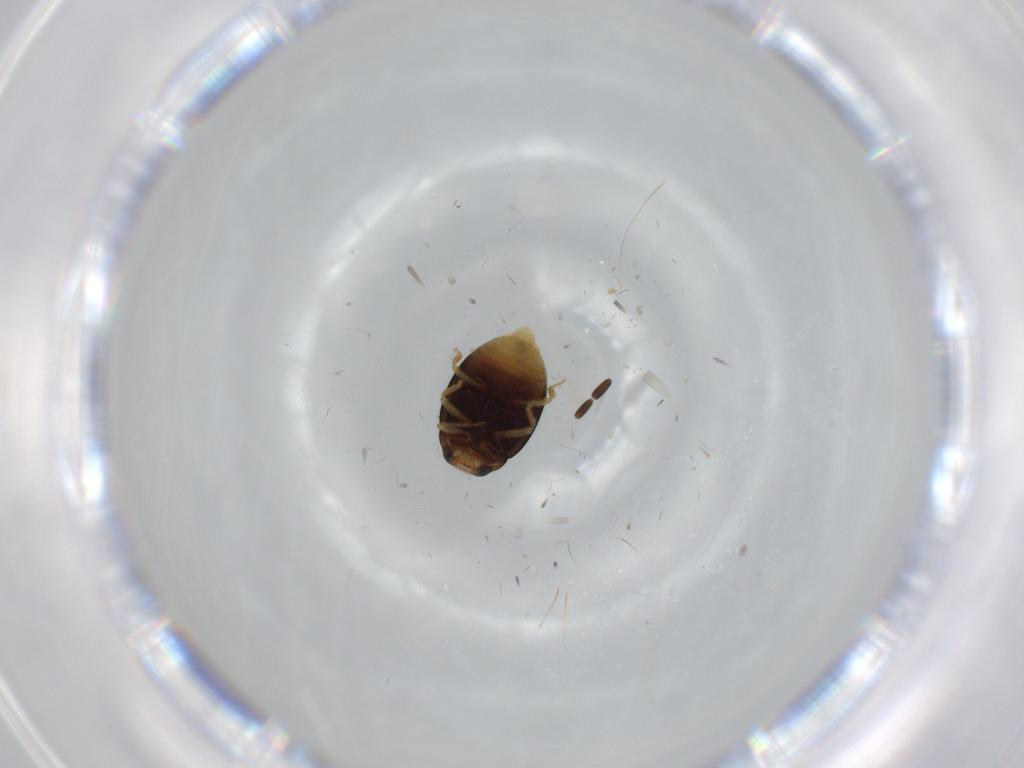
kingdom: Animalia
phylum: Arthropoda
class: Insecta
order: Coleoptera
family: Coccinellidae
